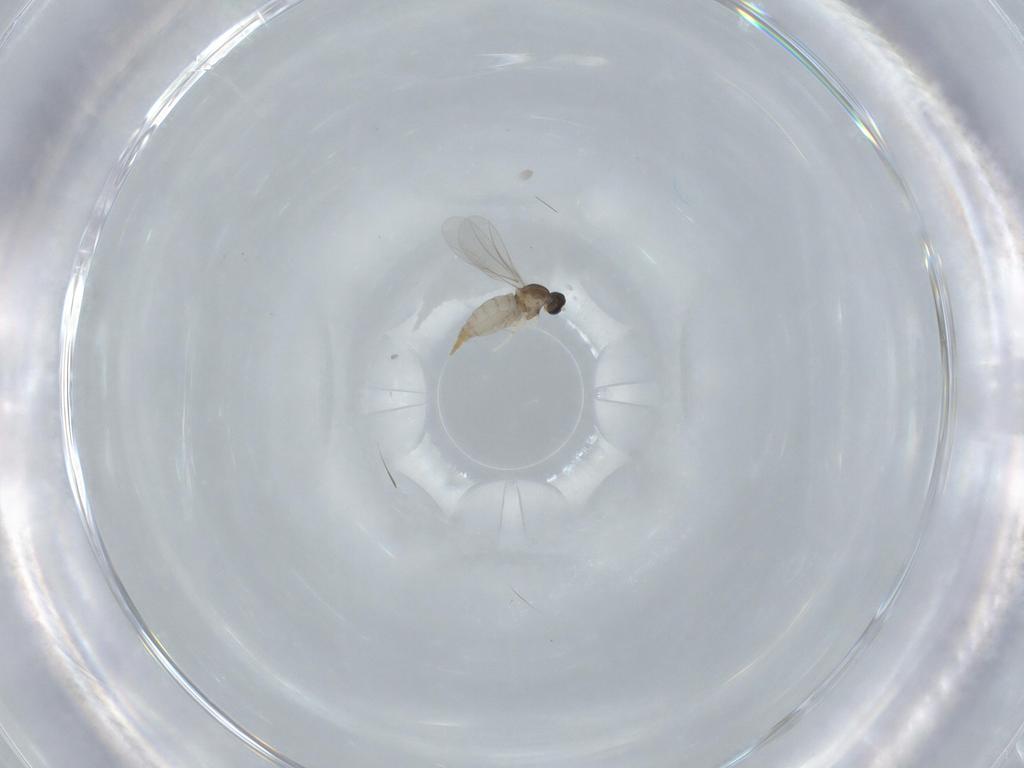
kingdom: Animalia
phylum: Arthropoda
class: Insecta
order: Diptera
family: Cecidomyiidae
